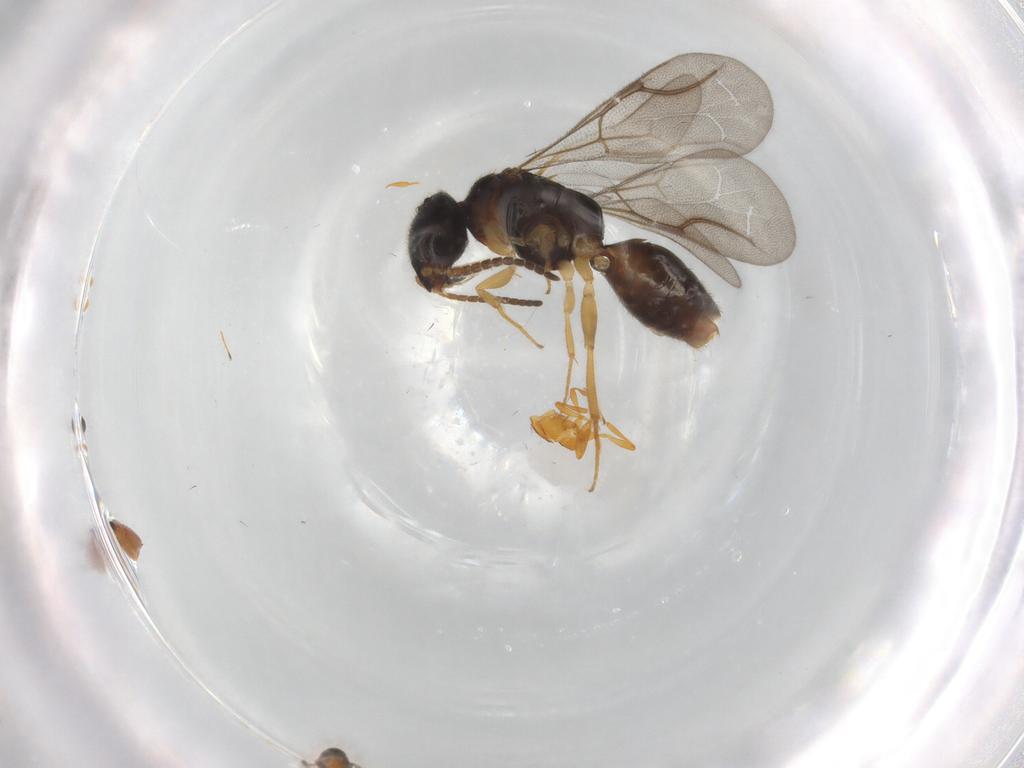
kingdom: Animalia
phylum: Arthropoda
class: Insecta
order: Hymenoptera
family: Bethylidae
